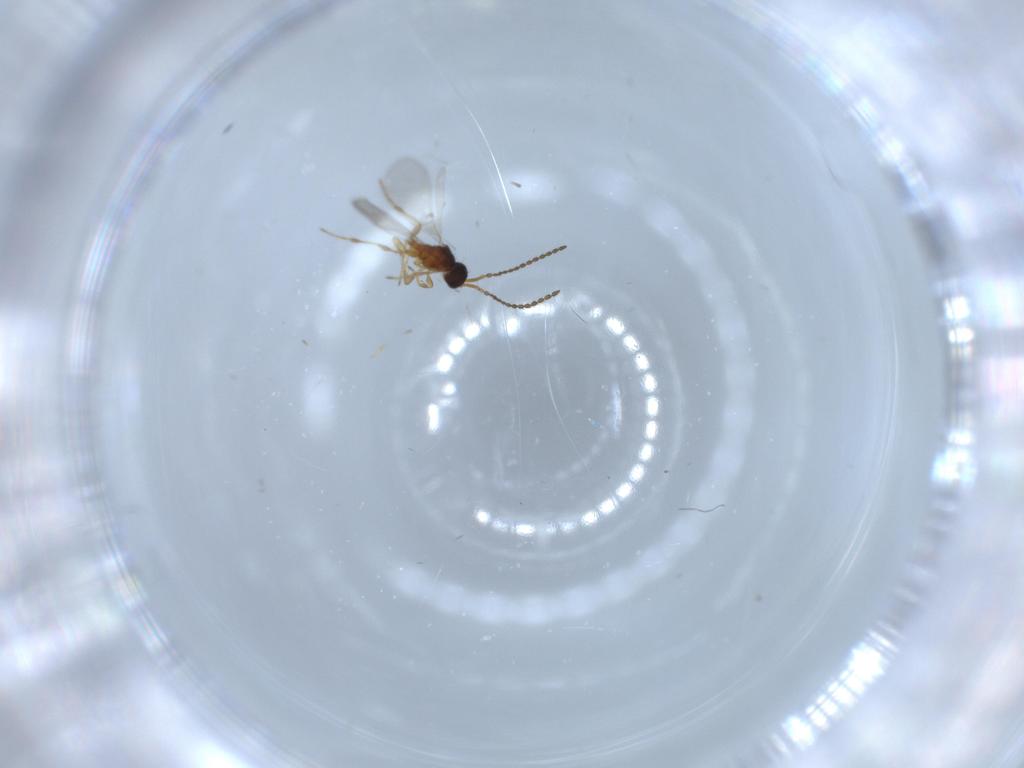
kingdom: Animalia
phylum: Arthropoda
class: Insecta
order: Hymenoptera
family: Diapriidae
